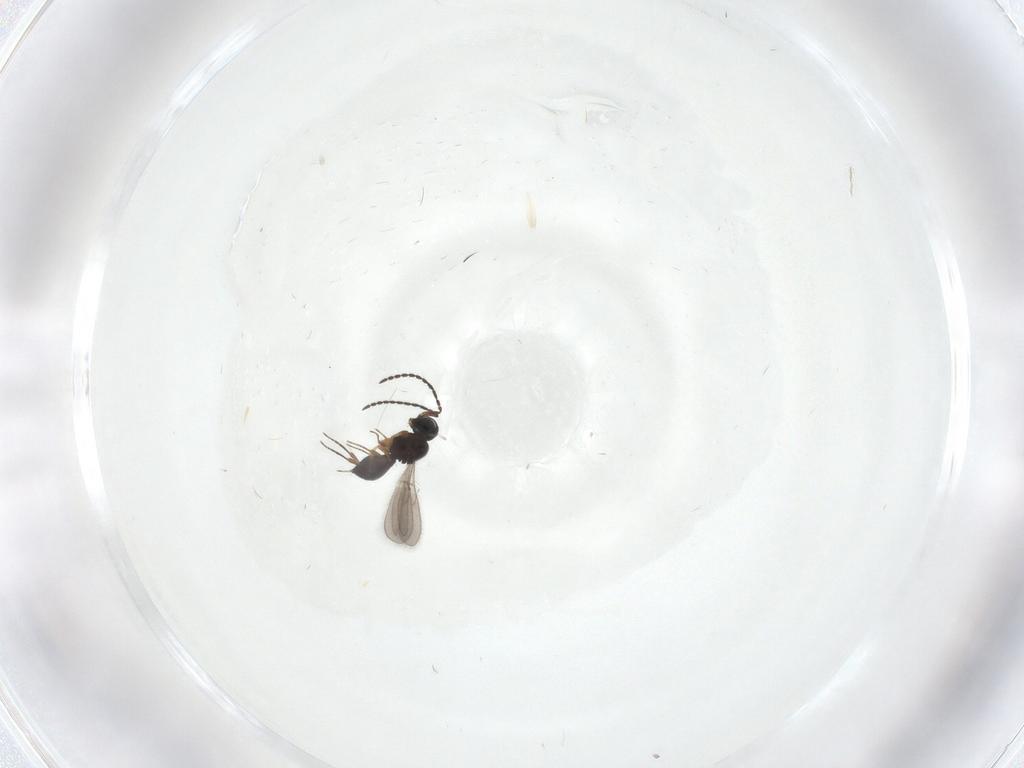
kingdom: Animalia
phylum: Arthropoda
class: Insecta
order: Hymenoptera
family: Scelionidae
